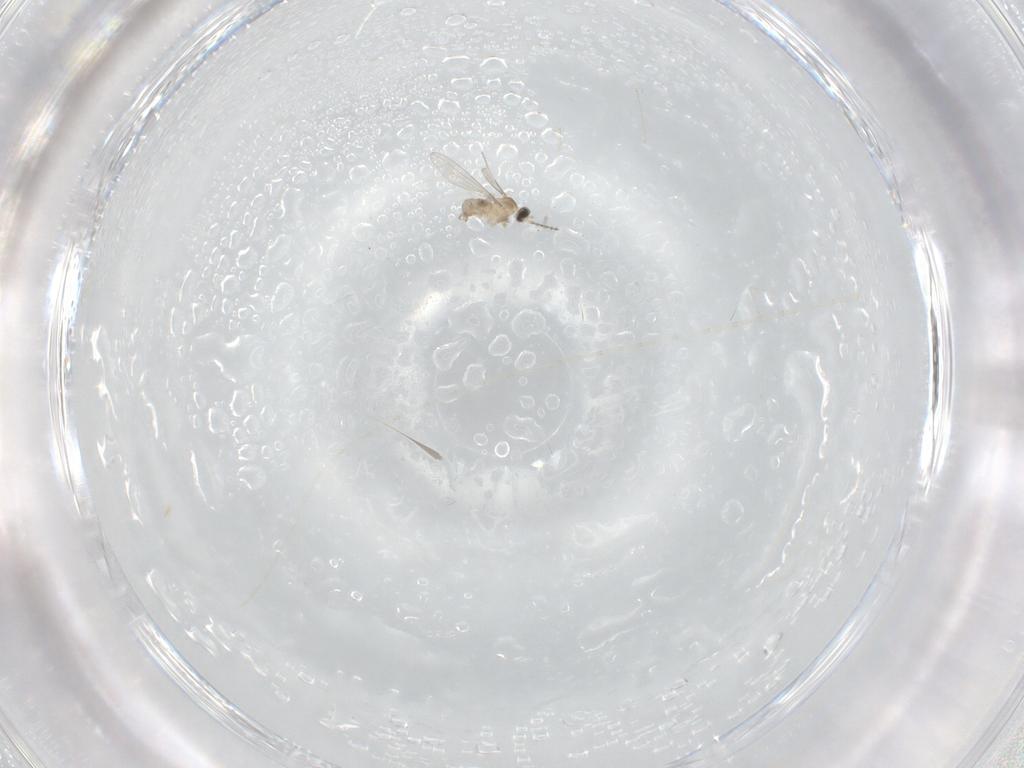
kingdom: Animalia
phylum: Arthropoda
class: Insecta
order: Diptera
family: Cecidomyiidae
